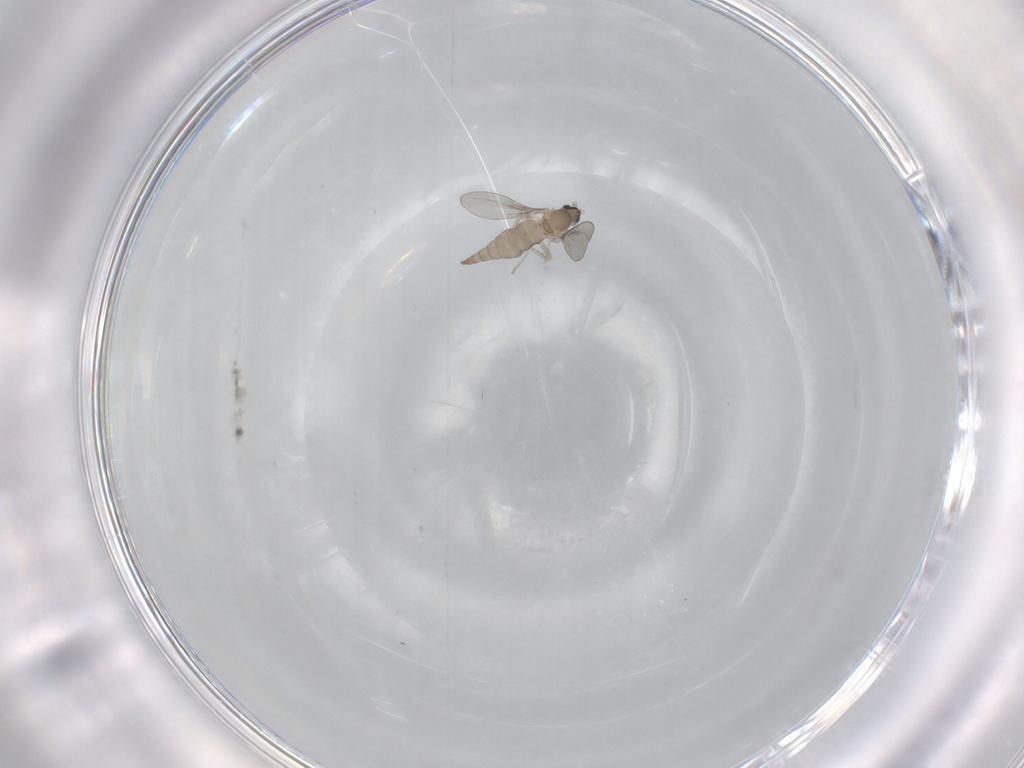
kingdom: Animalia
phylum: Arthropoda
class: Insecta
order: Diptera
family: Cecidomyiidae
